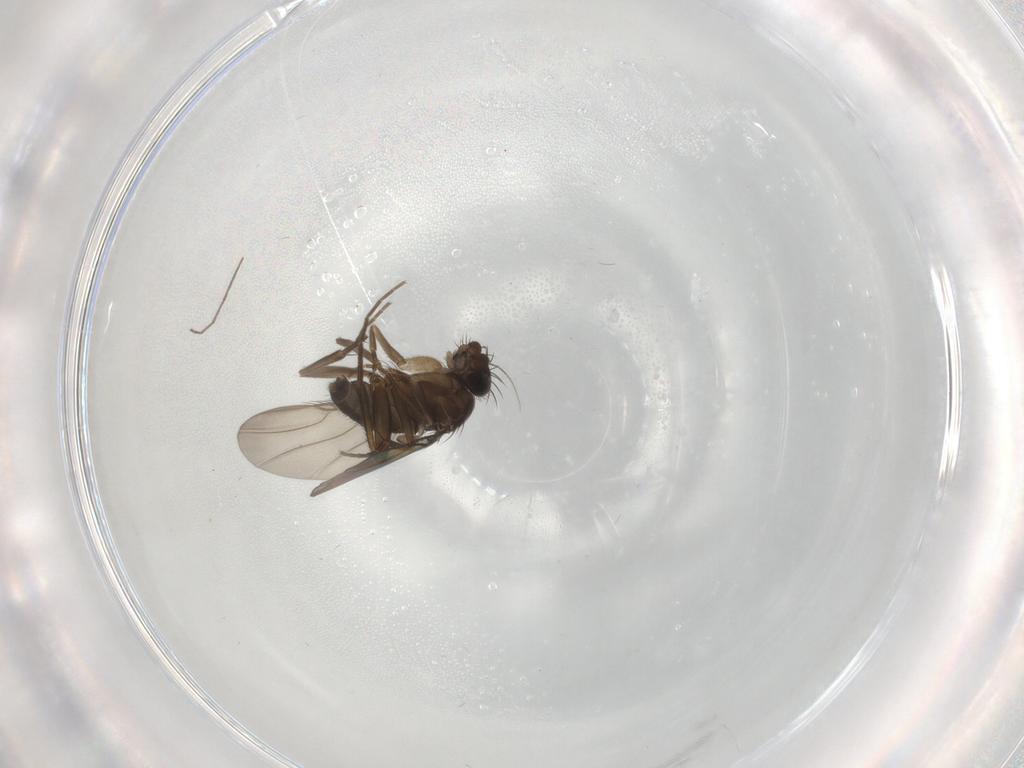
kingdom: Animalia
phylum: Arthropoda
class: Insecta
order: Diptera
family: Phoridae
